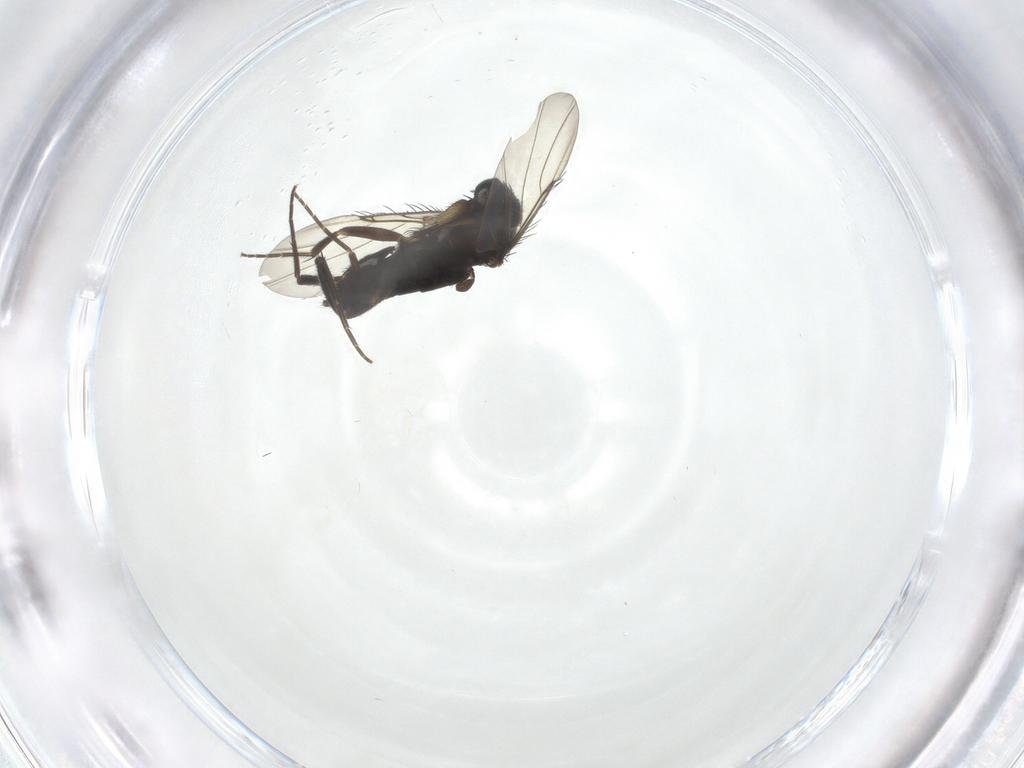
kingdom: Animalia
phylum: Arthropoda
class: Insecta
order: Diptera
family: Phoridae
